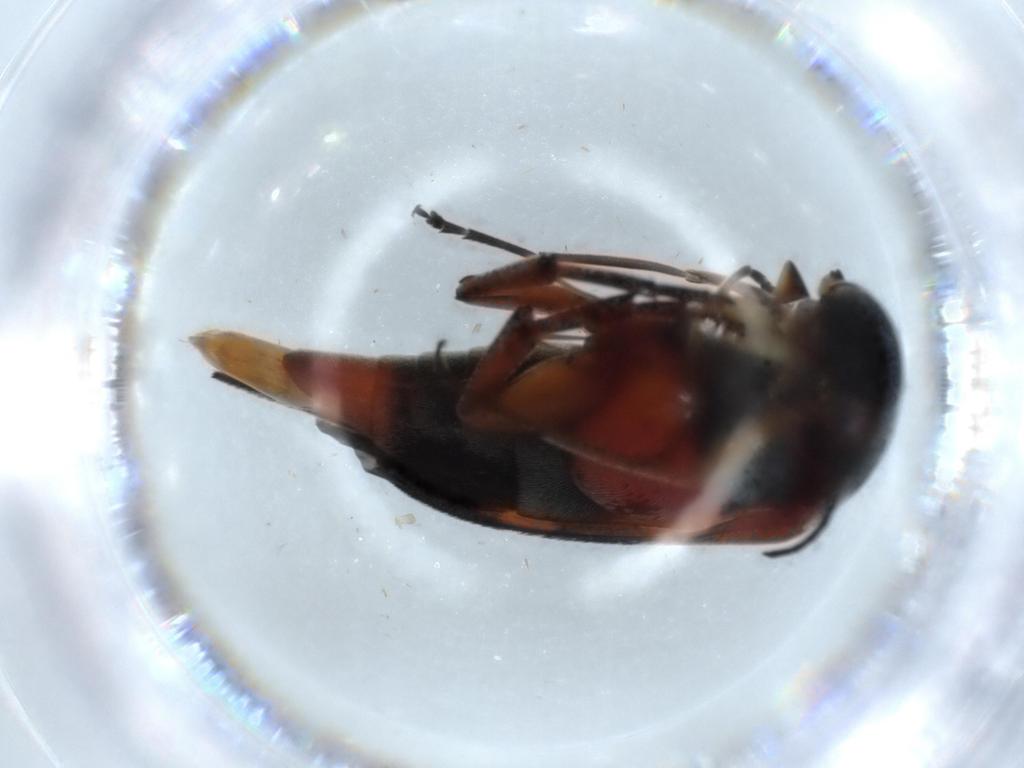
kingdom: Animalia
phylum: Arthropoda
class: Insecta
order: Coleoptera
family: Mordellidae
